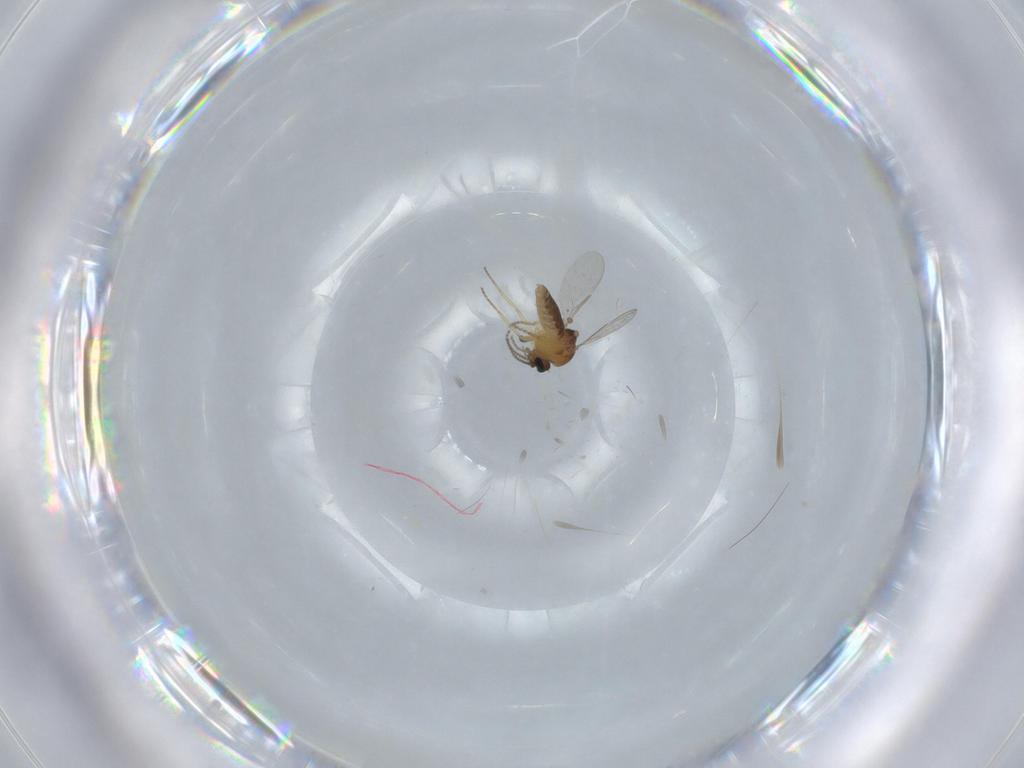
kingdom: Animalia
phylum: Arthropoda
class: Insecta
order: Diptera
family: Ceratopogonidae
